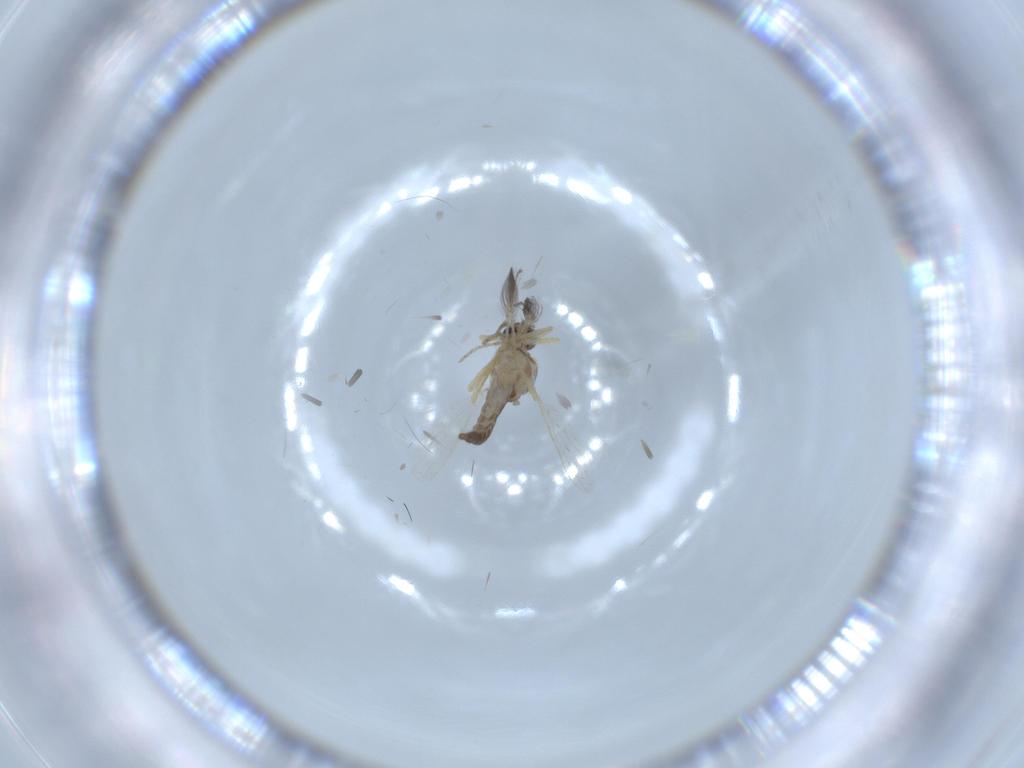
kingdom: Animalia
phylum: Arthropoda
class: Insecta
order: Diptera
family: Ceratopogonidae
